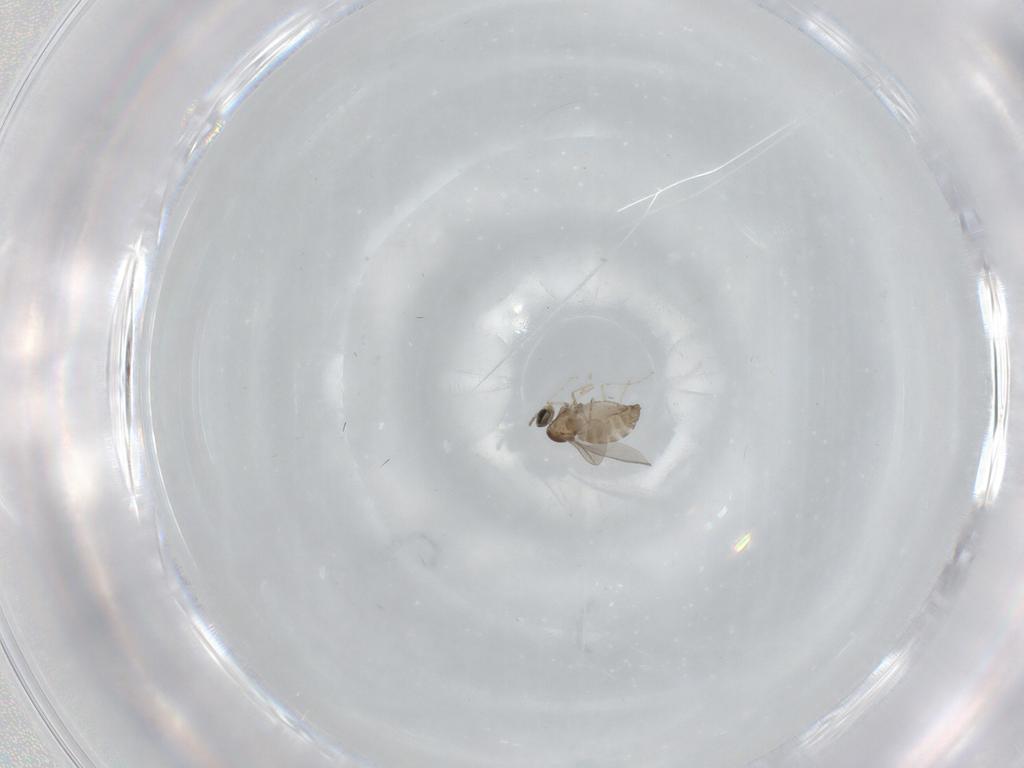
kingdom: Animalia
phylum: Arthropoda
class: Insecta
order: Diptera
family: Cecidomyiidae
